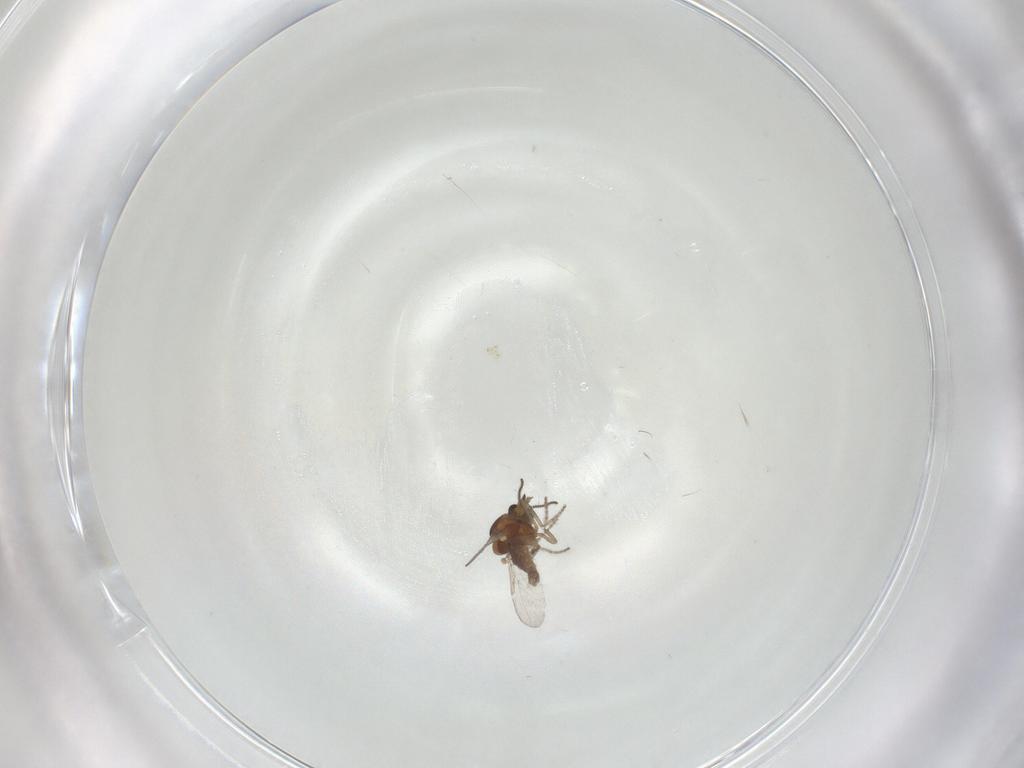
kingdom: Animalia
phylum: Arthropoda
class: Insecta
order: Diptera
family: Ceratopogonidae
